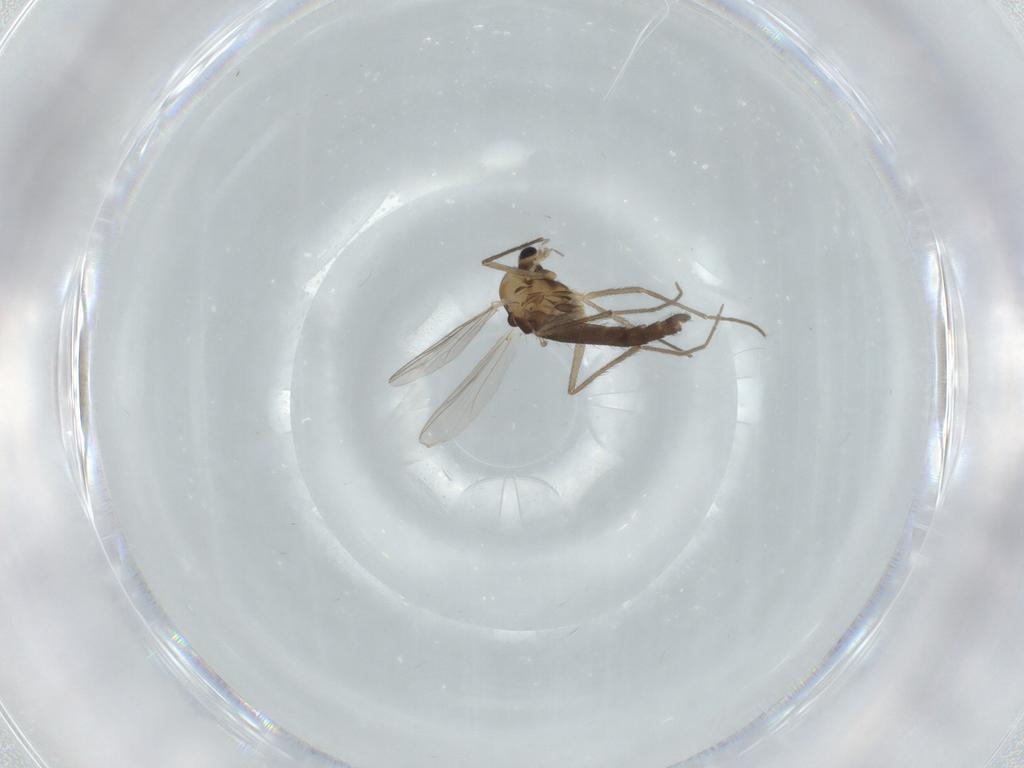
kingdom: Animalia
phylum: Arthropoda
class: Insecta
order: Diptera
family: Chironomidae
